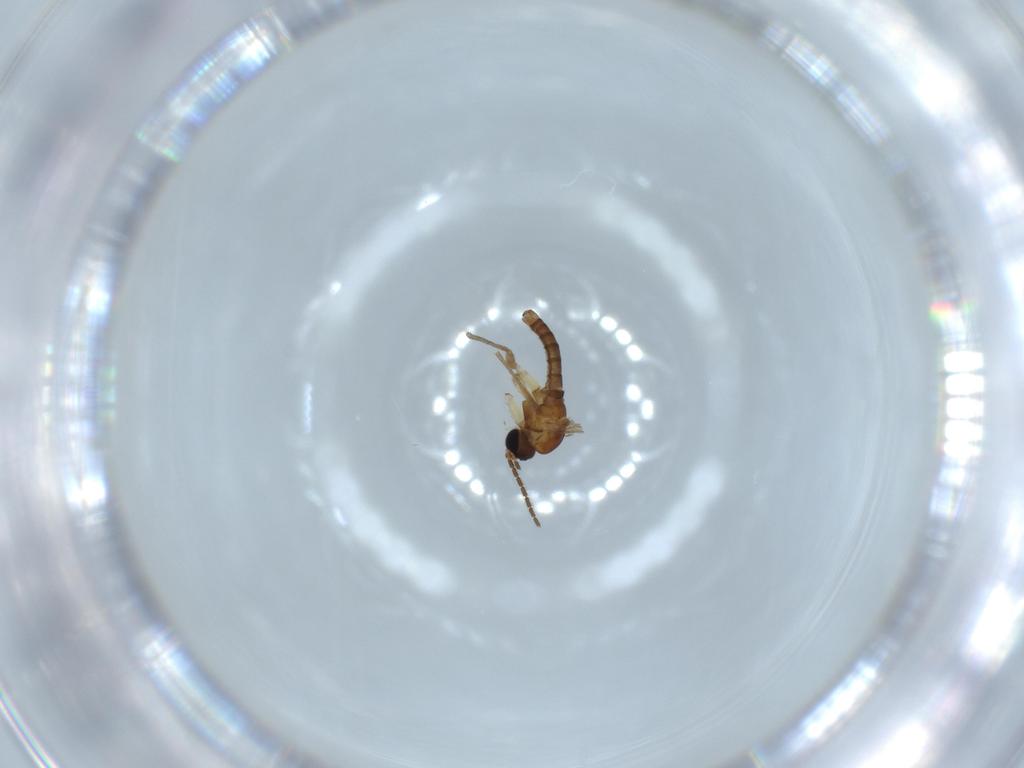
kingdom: Animalia
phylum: Arthropoda
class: Insecta
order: Diptera
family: Sciaridae
